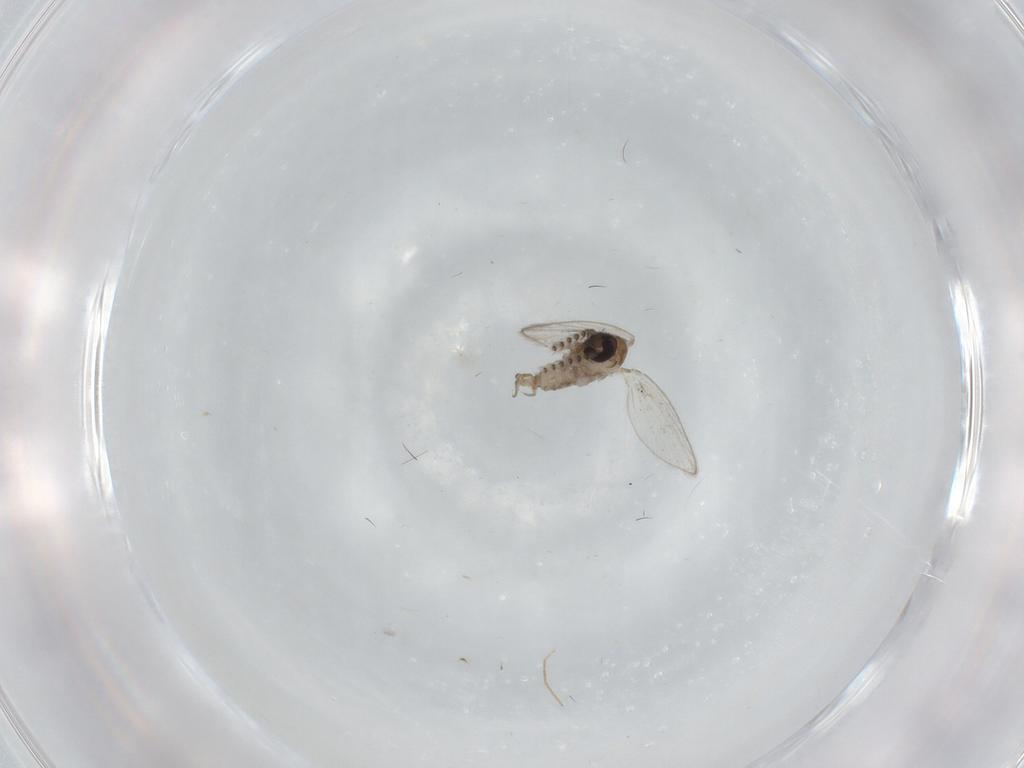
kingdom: Animalia
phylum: Arthropoda
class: Insecta
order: Diptera
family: Psychodidae
